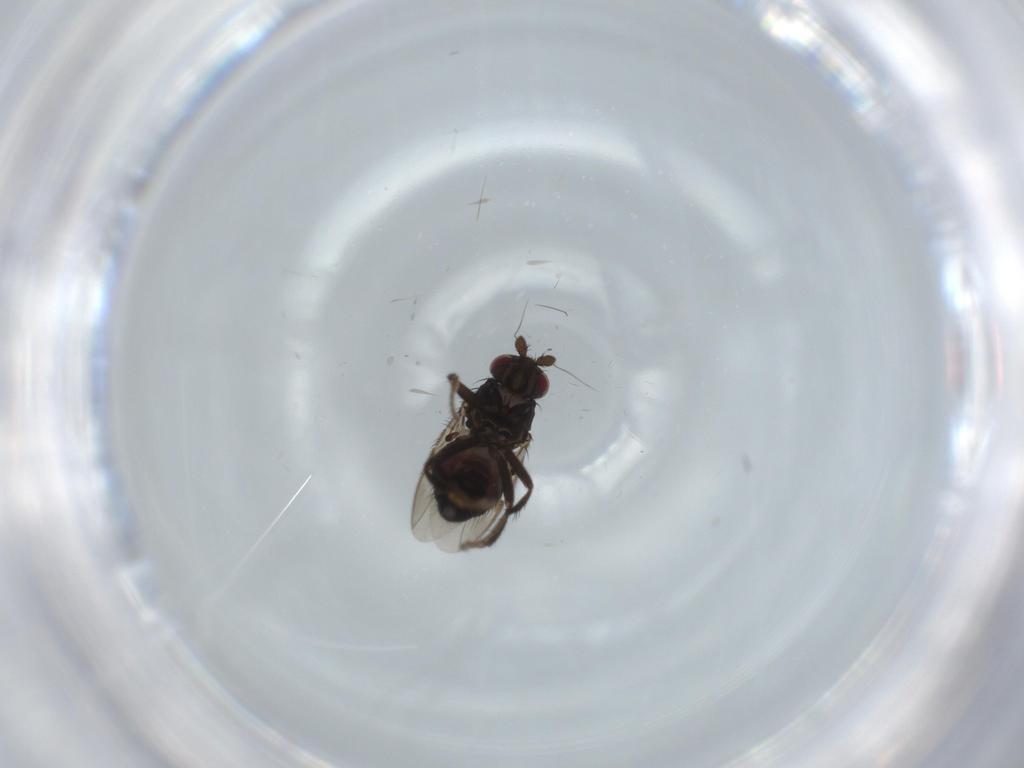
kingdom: Animalia
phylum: Arthropoda
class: Insecta
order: Diptera
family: Sphaeroceridae
